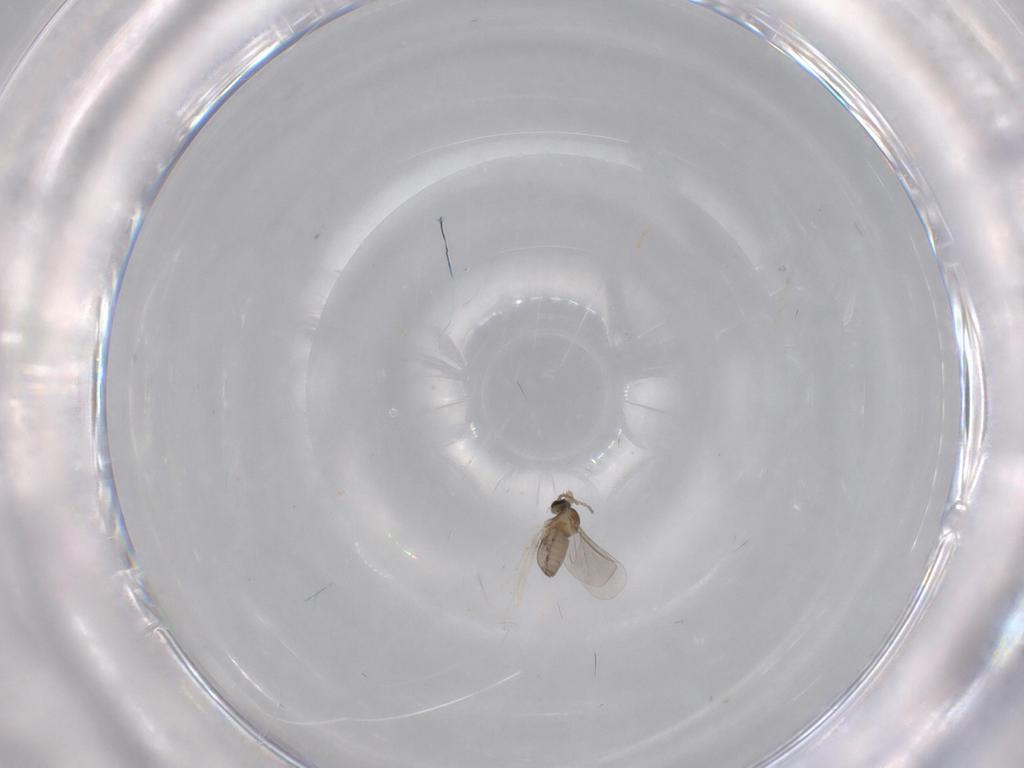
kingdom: Animalia
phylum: Arthropoda
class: Insecta
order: Diptera
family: Cecidomyiidae
